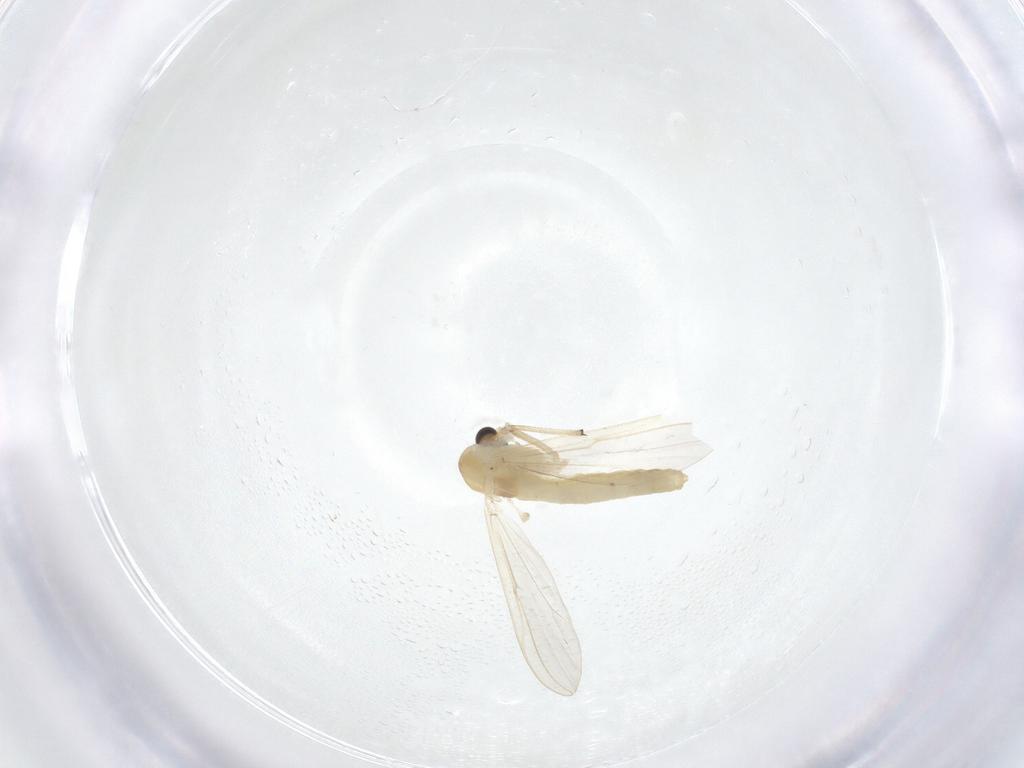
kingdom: Animalia
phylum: Arthropoda
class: Insecta
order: Diptera
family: Chironomidae
